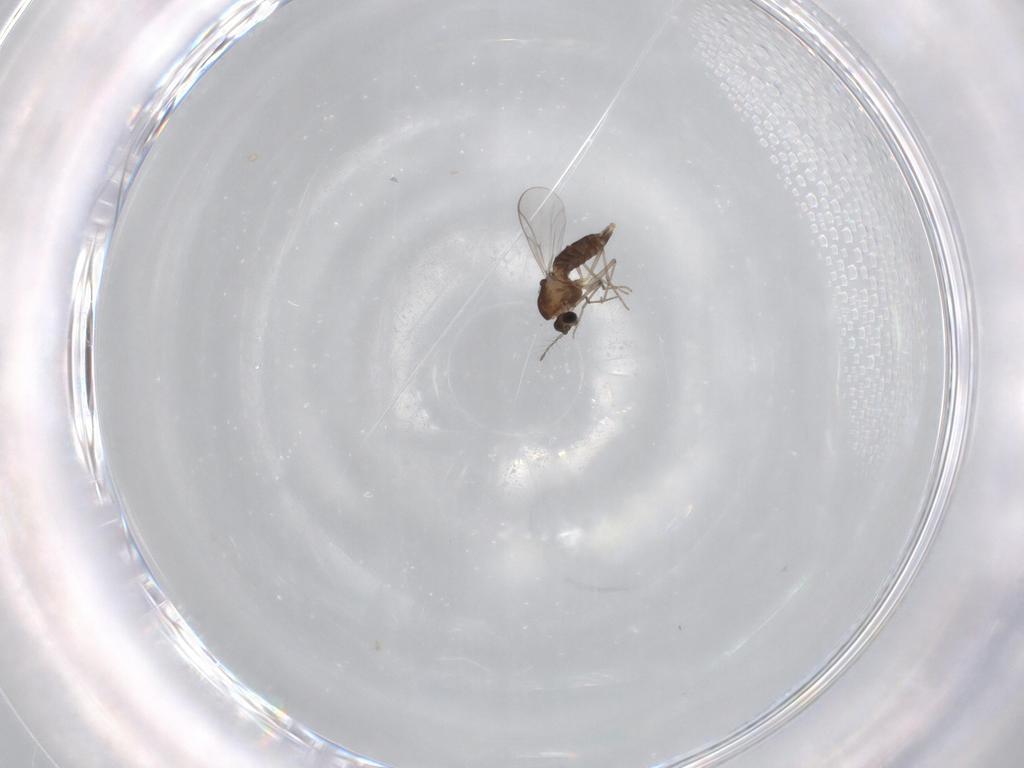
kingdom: Animalia
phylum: Arthropoda
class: Insecta
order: Diptera
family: Chironomidae
